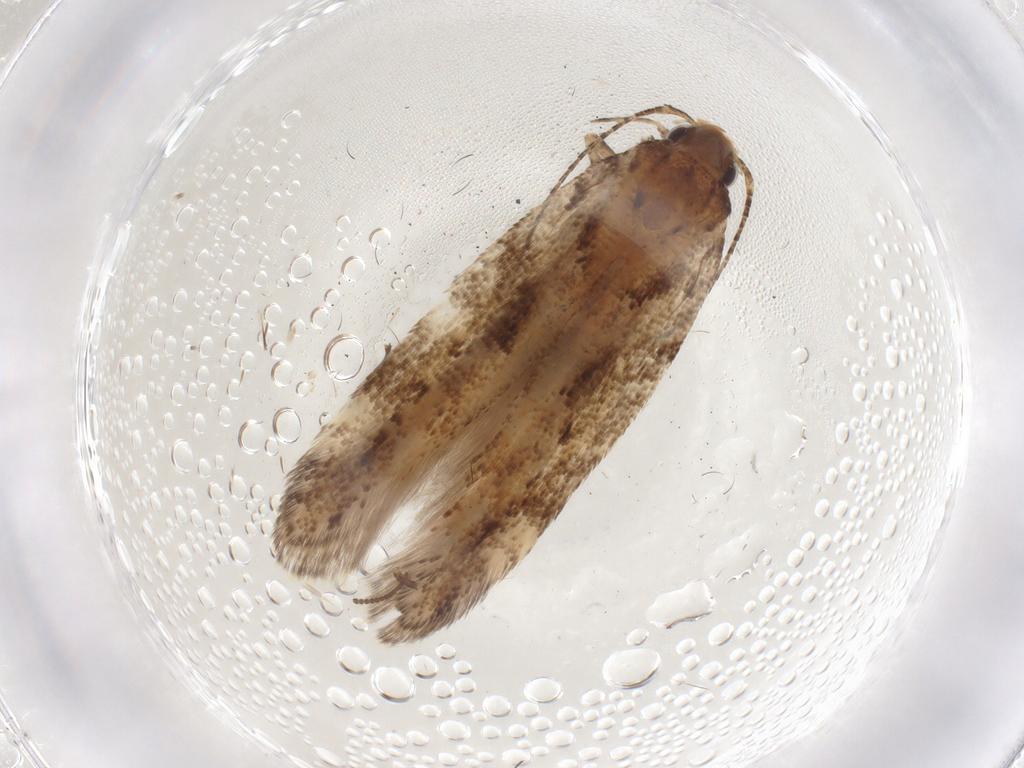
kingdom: Animalia
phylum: Arthropoda
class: Insecta
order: Lepidoptera
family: Gelechiidae
